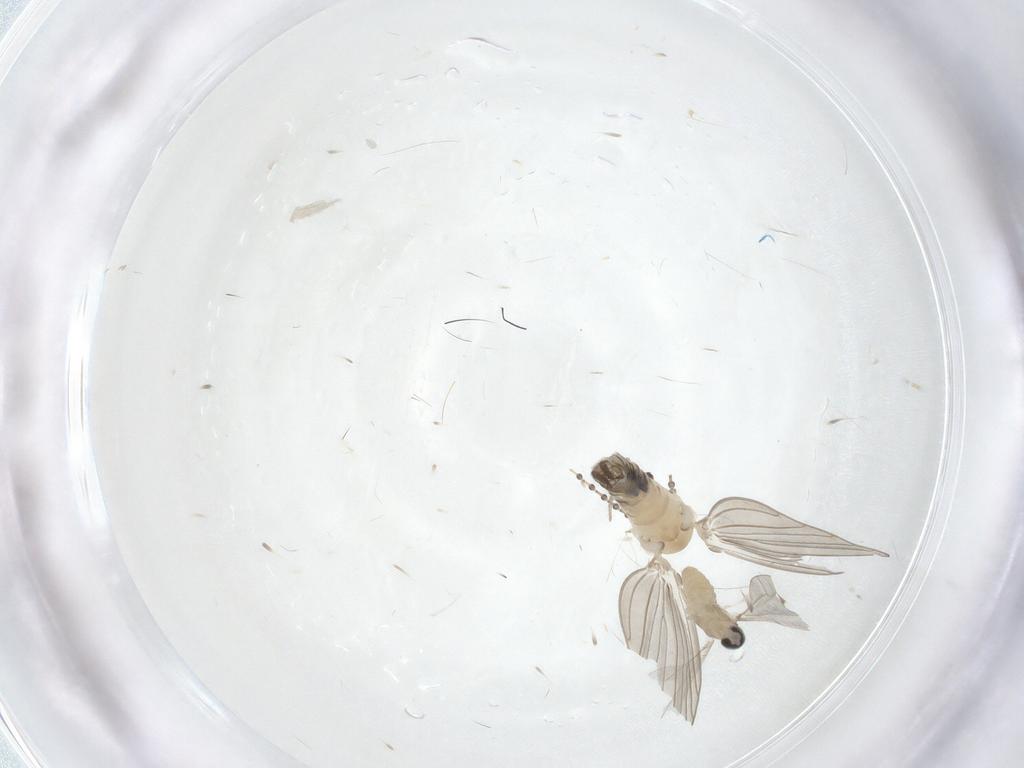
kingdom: Animalia
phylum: Arthropoda
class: Insecta
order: Diptera
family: Psychodidae
